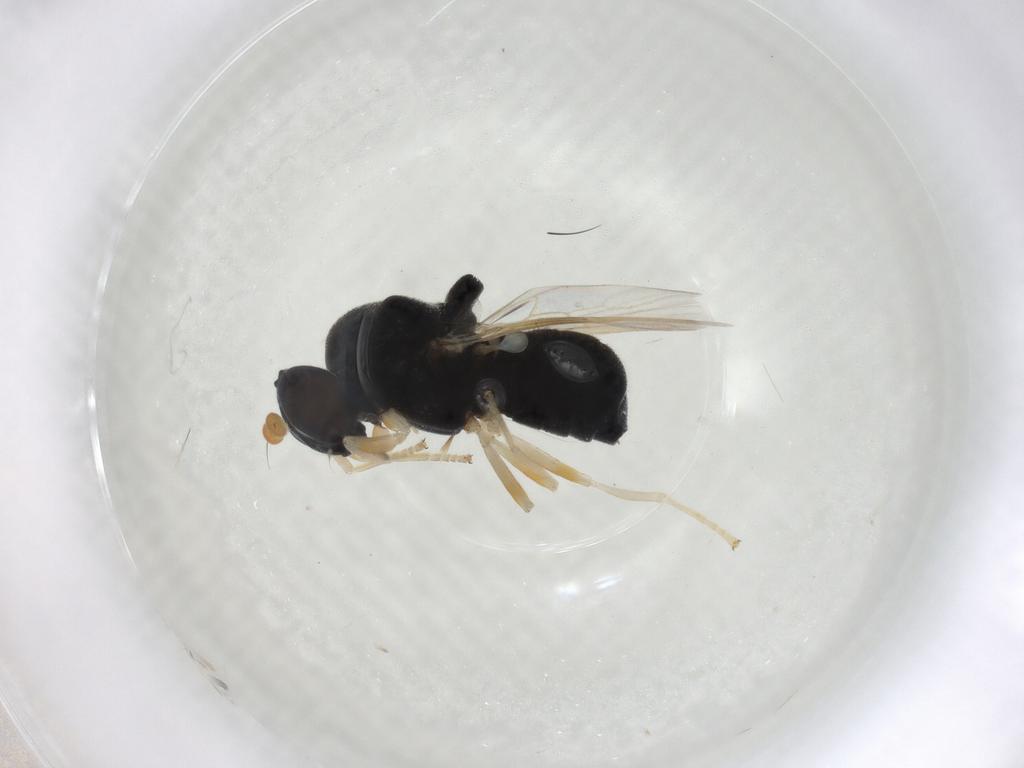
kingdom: Animalia
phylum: Arthropoda
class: Insecta
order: Diptera
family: Stratiomyidae
